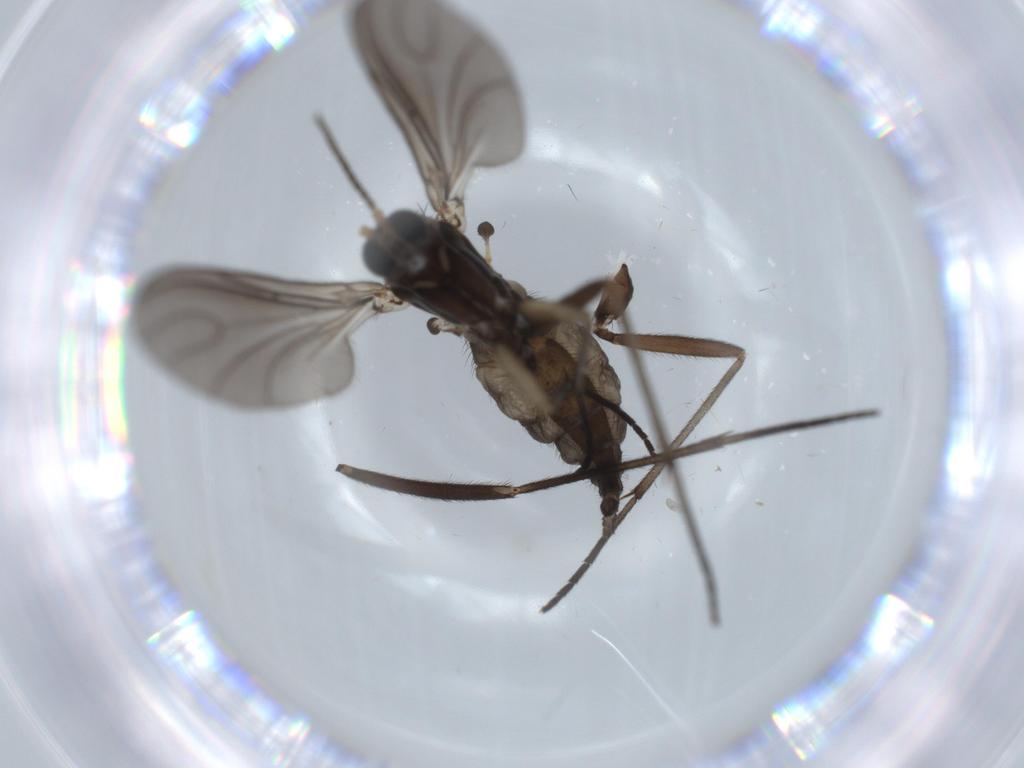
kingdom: Animalia
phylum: Arthropoda
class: Insecta
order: Diptera
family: Sciaridae
